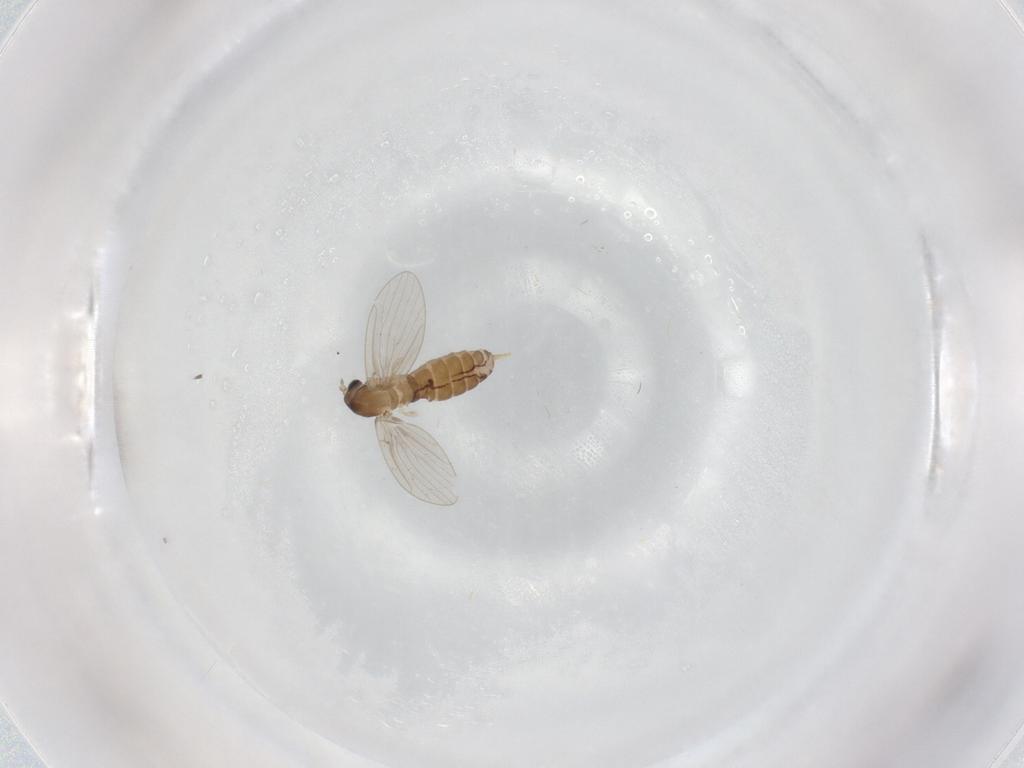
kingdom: Animalia
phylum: Arthropoda
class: Insecta
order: Diptera
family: Psychodidae
